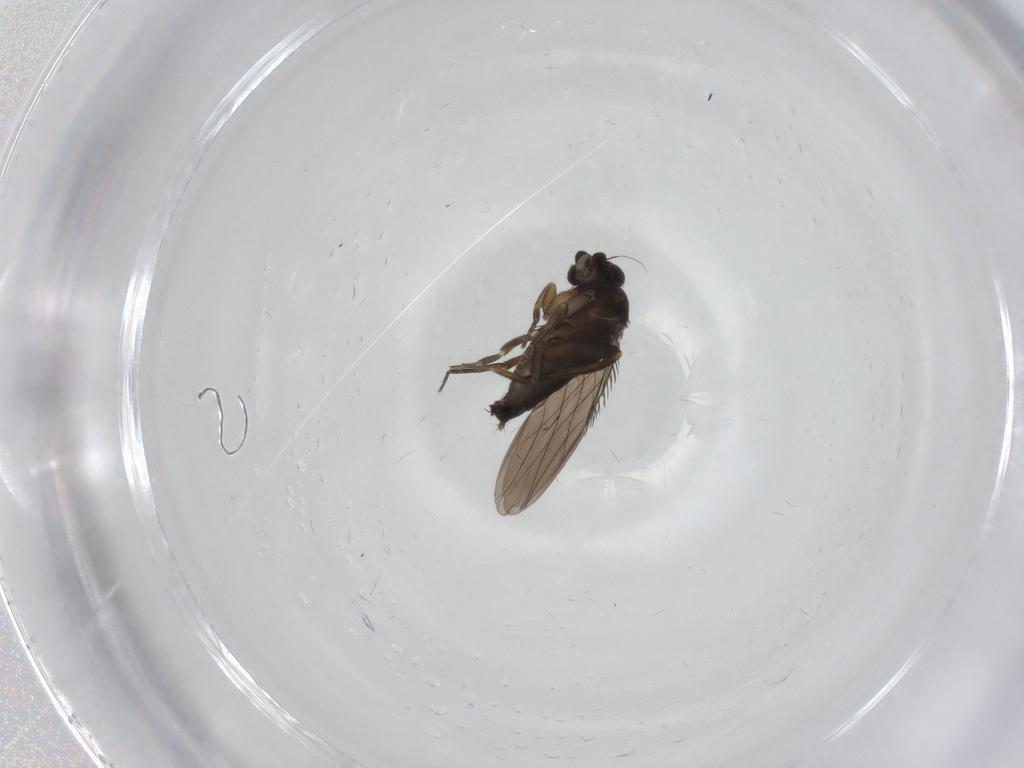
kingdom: Animalia
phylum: Arthropoda
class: Insecta
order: Diptera
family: Phoridae
